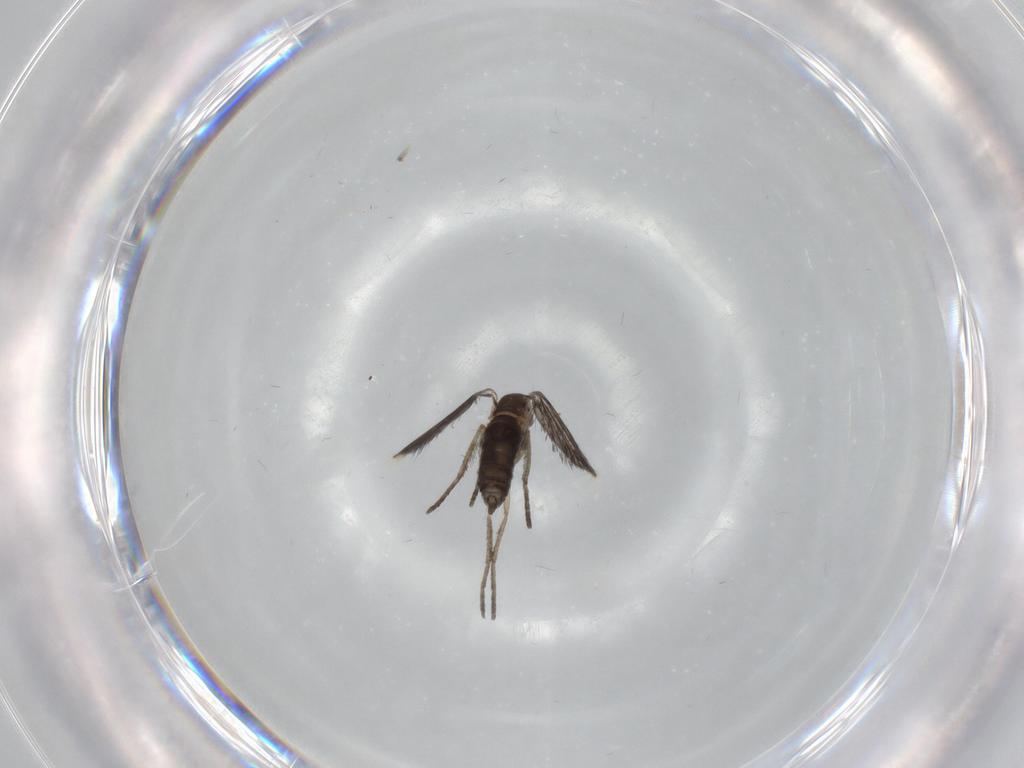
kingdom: Animalia
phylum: Arthropoda
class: Insecta
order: Diptera
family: Psychodidae
